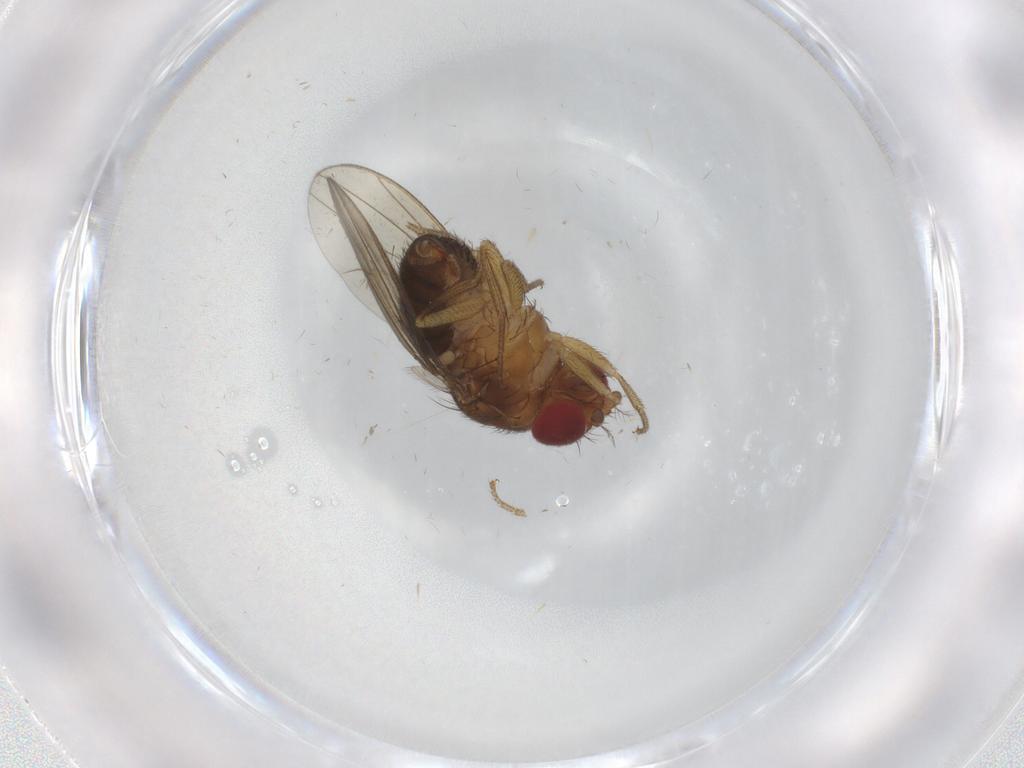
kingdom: Animalia
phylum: Arthropoda
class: Insecta
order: Diptera
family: Drosophilidae
